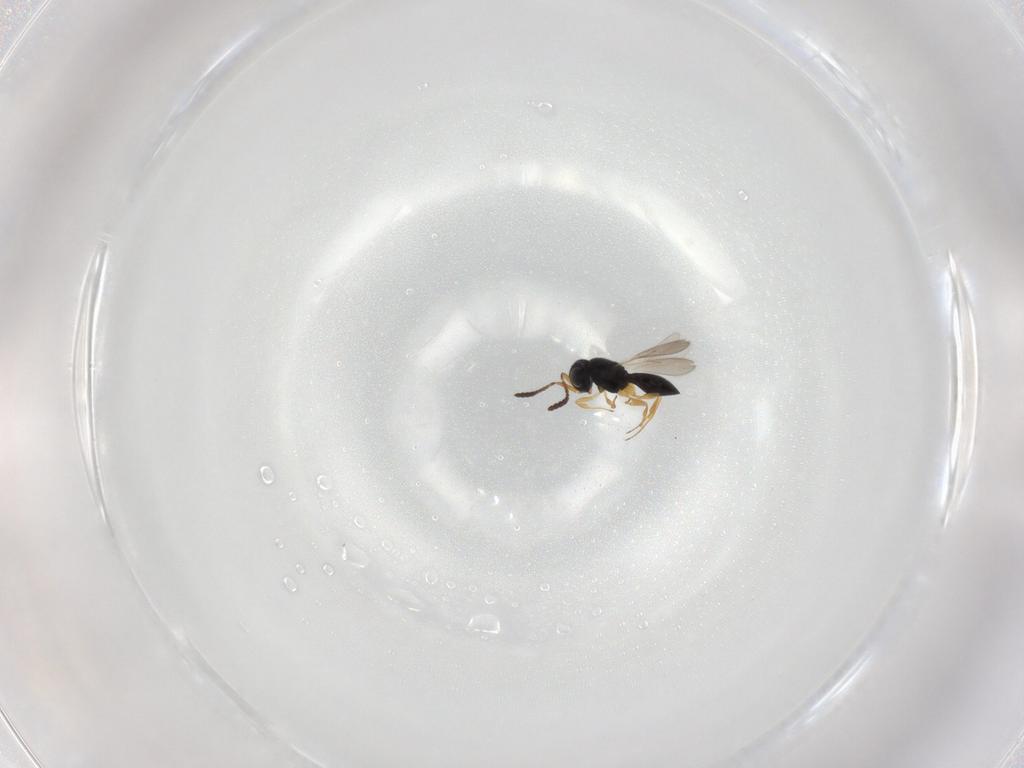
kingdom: Animalia
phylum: Arthropoda
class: Insecta
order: Hymenoptera
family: Scelionidae
